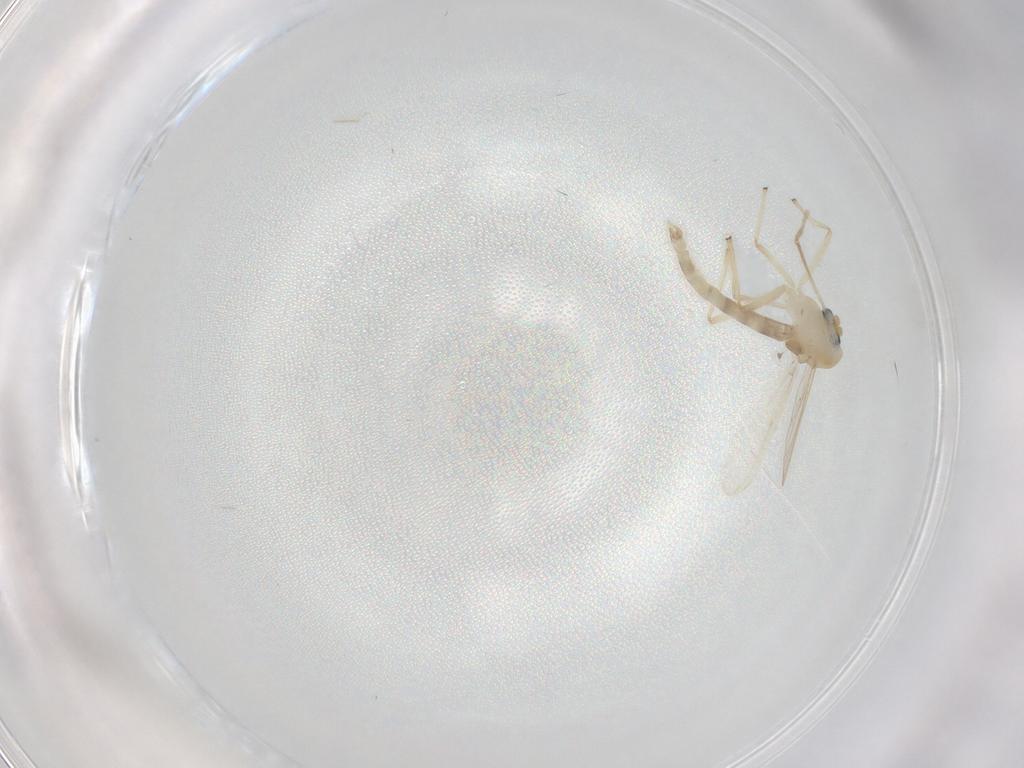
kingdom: Animalia
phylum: Arthropoda
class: Insecta
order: Diptera
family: Chironomidae
